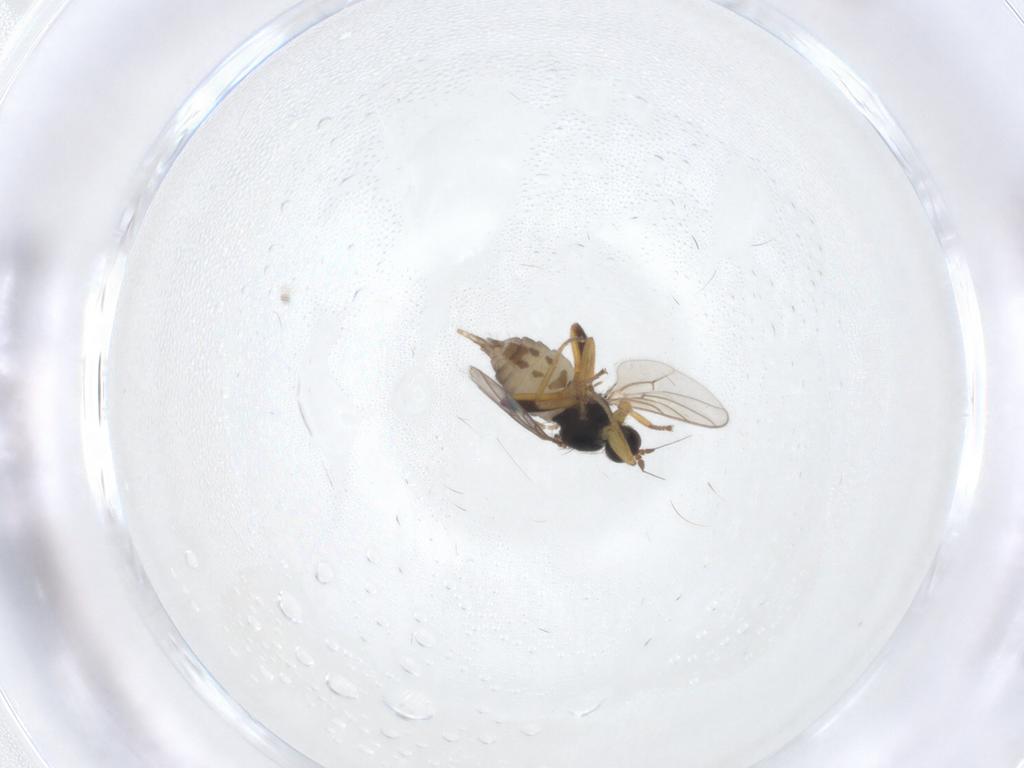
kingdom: Animalia
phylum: Arthropoda
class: Insecta
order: Diptera
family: Hybotidae
